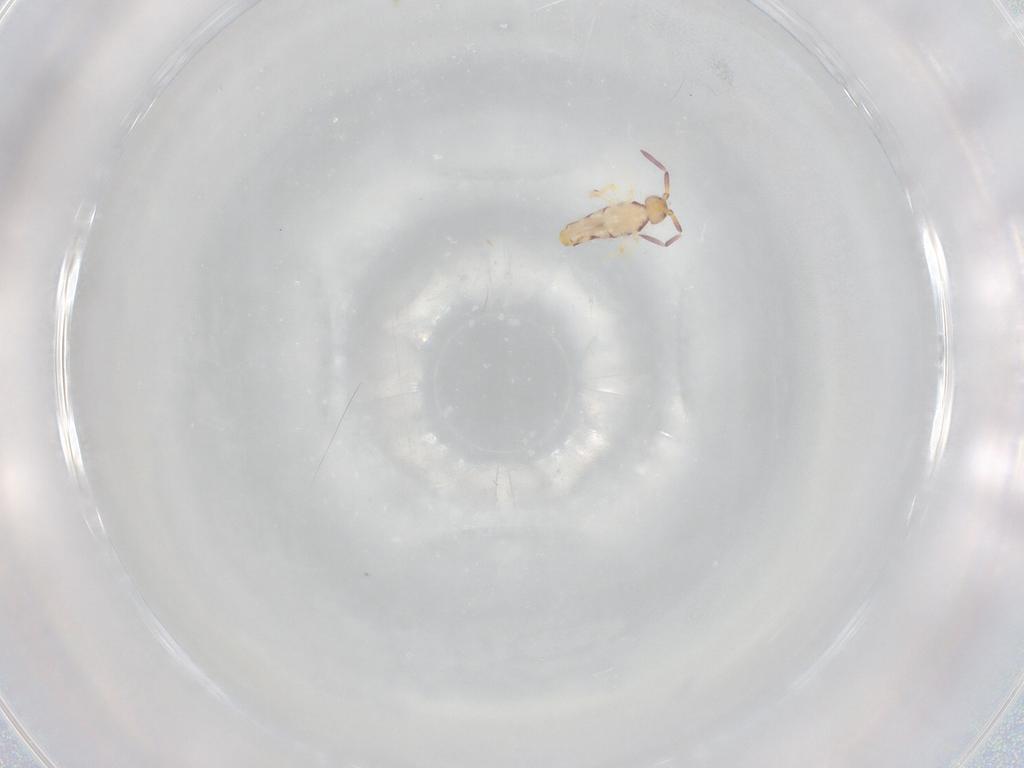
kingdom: Animalia
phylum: Arthropoda
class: Collembola
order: Entomobryomorpha
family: Entomobryidae
